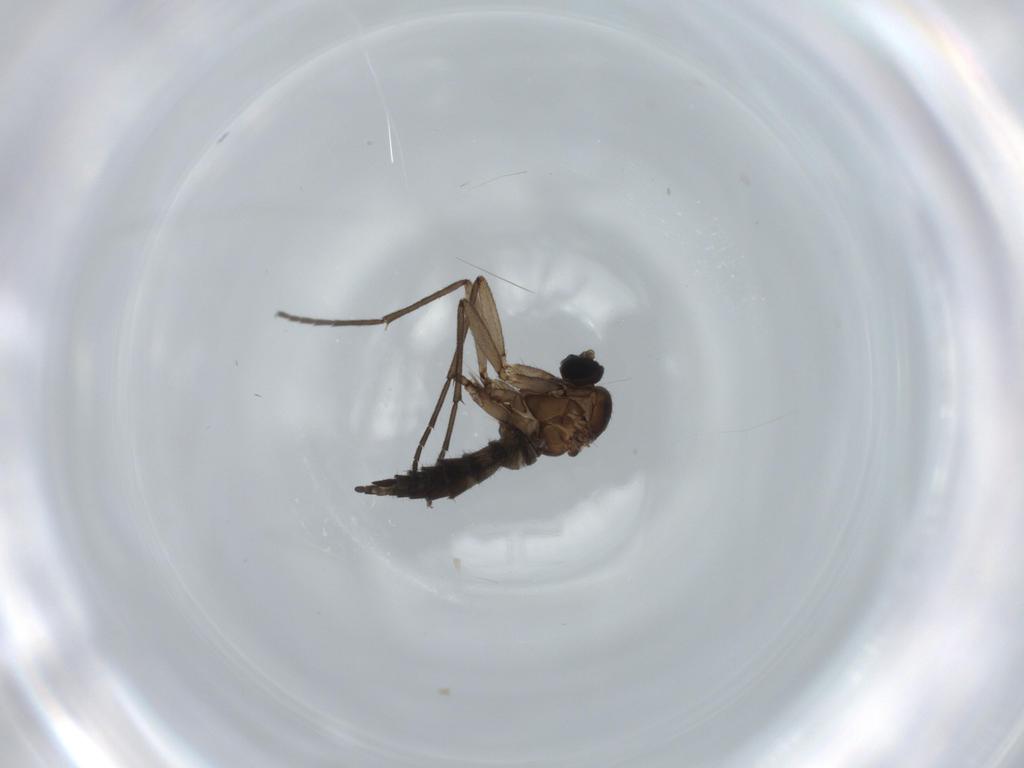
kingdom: Animalia
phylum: Arthropoda
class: Insecta
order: Diptera
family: Sciaridae
